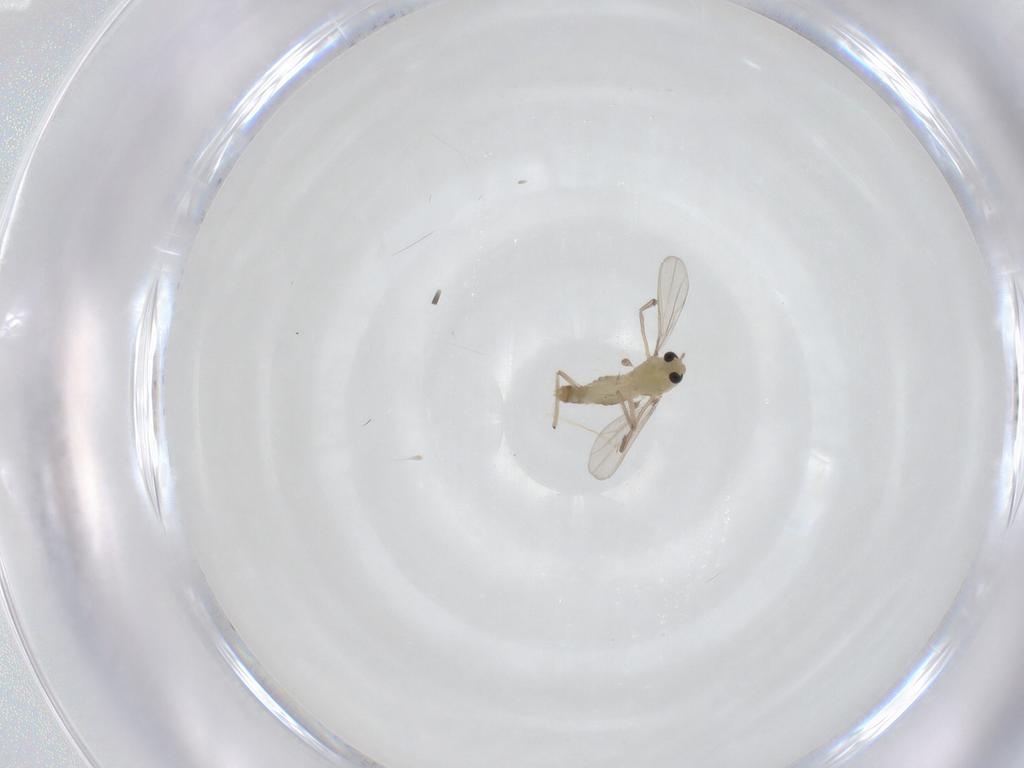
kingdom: Animalia
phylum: Arthropoda
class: Insecta
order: Diptera
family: Chironomidae
